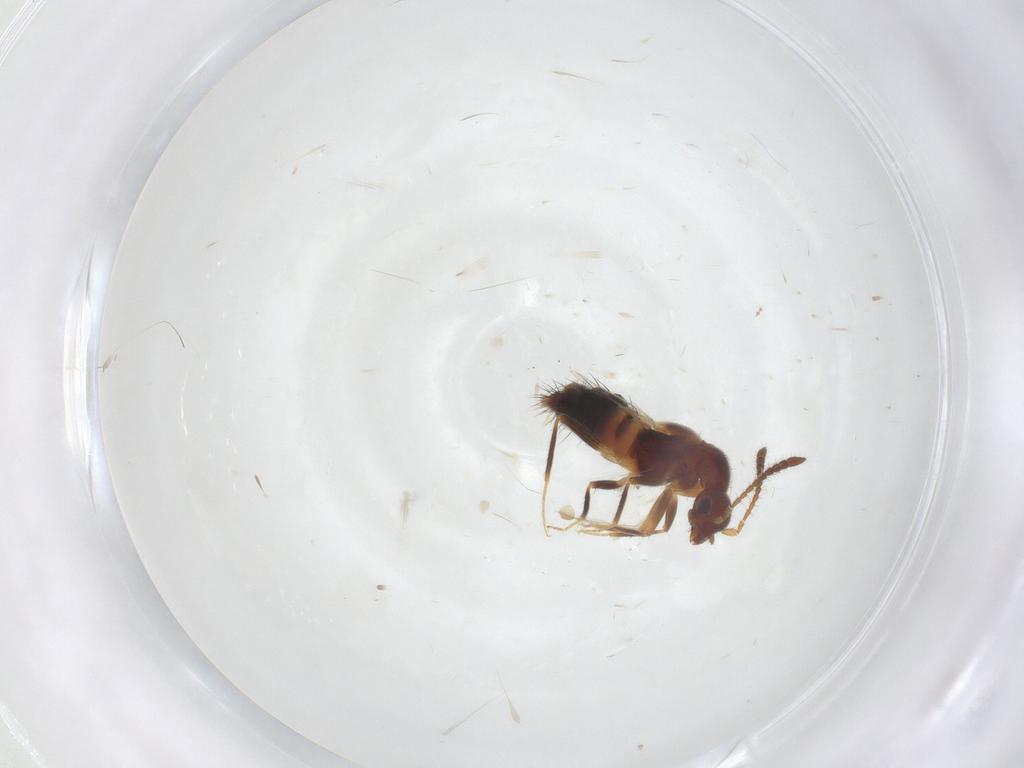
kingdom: Animalia
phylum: Arthropoda
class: Insecta
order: Coleoptera
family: Staphylinidae
